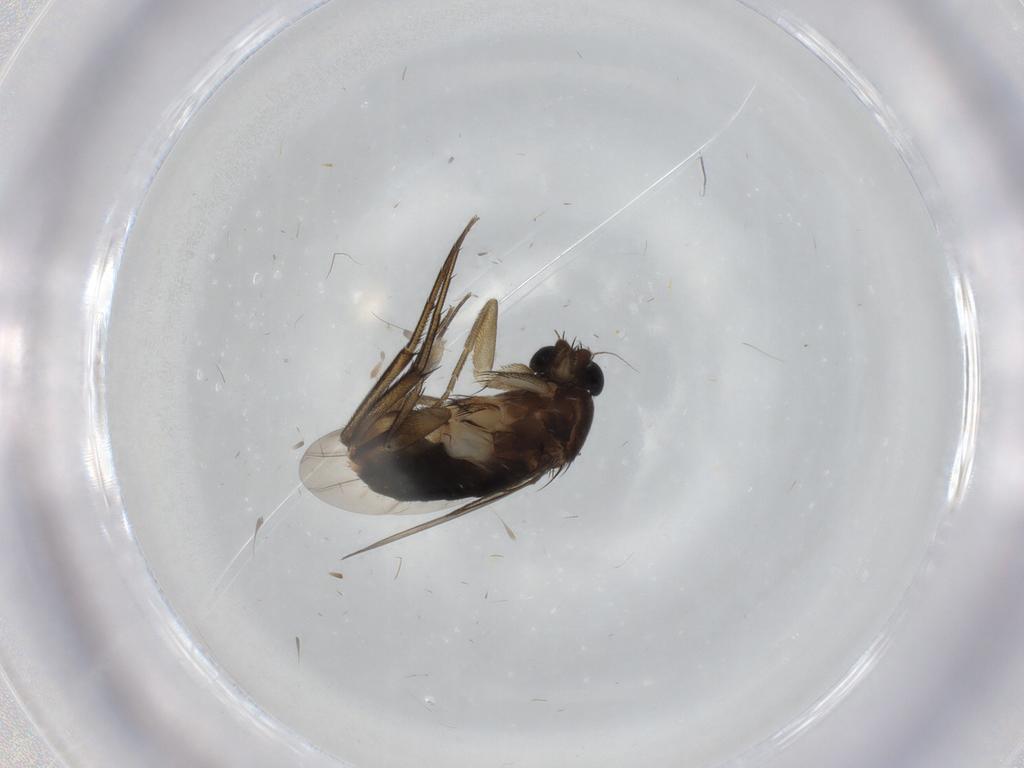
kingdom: Animalia
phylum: Arthropoda
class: Insecta
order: Diptera
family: Phoridae
